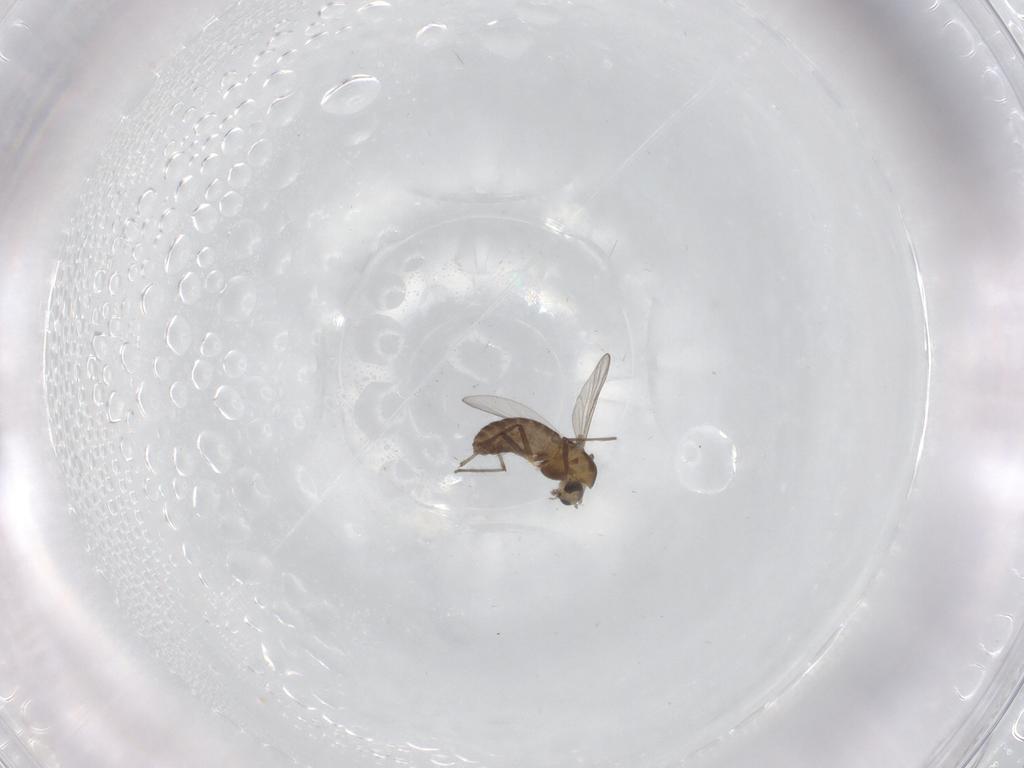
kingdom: Animalia
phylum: Arthropoda
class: Insecta
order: Diptera
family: Chironomidae
